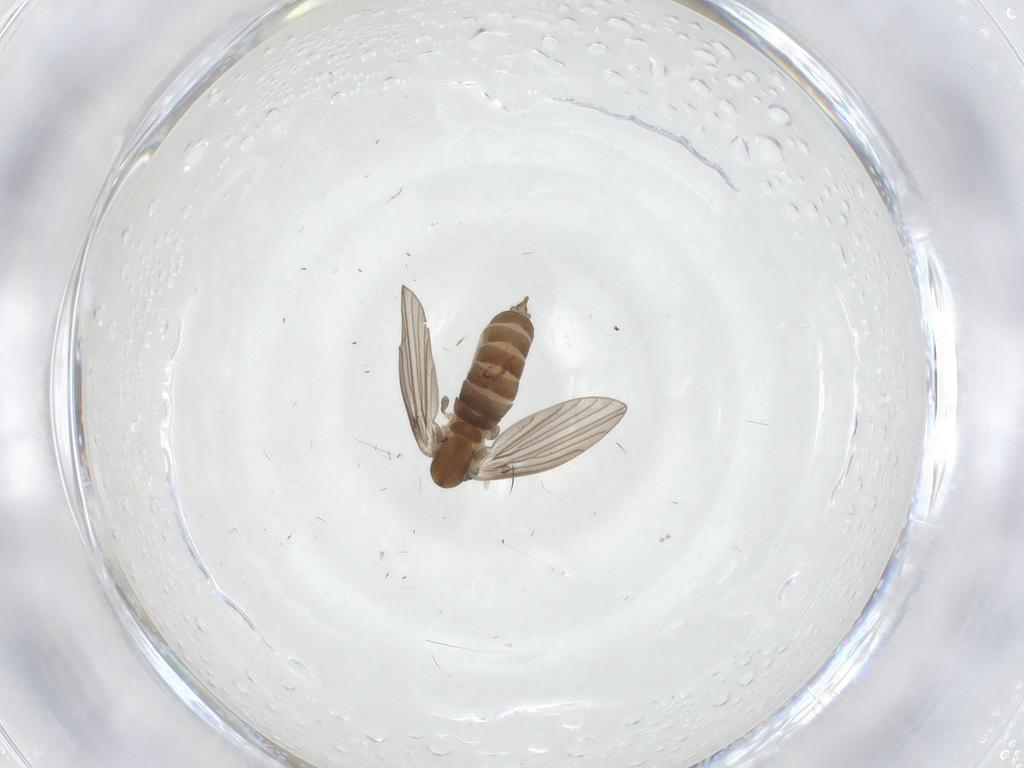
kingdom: Animalia
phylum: Arthropoda
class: Insecta
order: Diptera
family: Psychodidae
